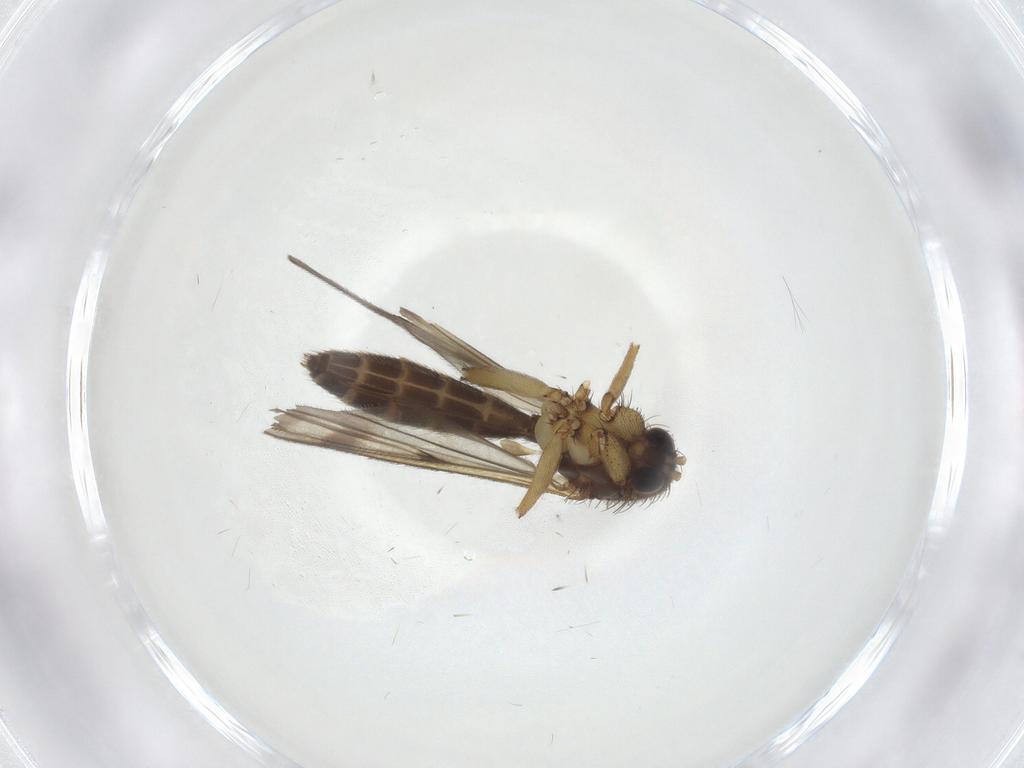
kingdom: Animalia
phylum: Arthropoda
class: Insecta
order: Diptera
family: Mycetophilidae
